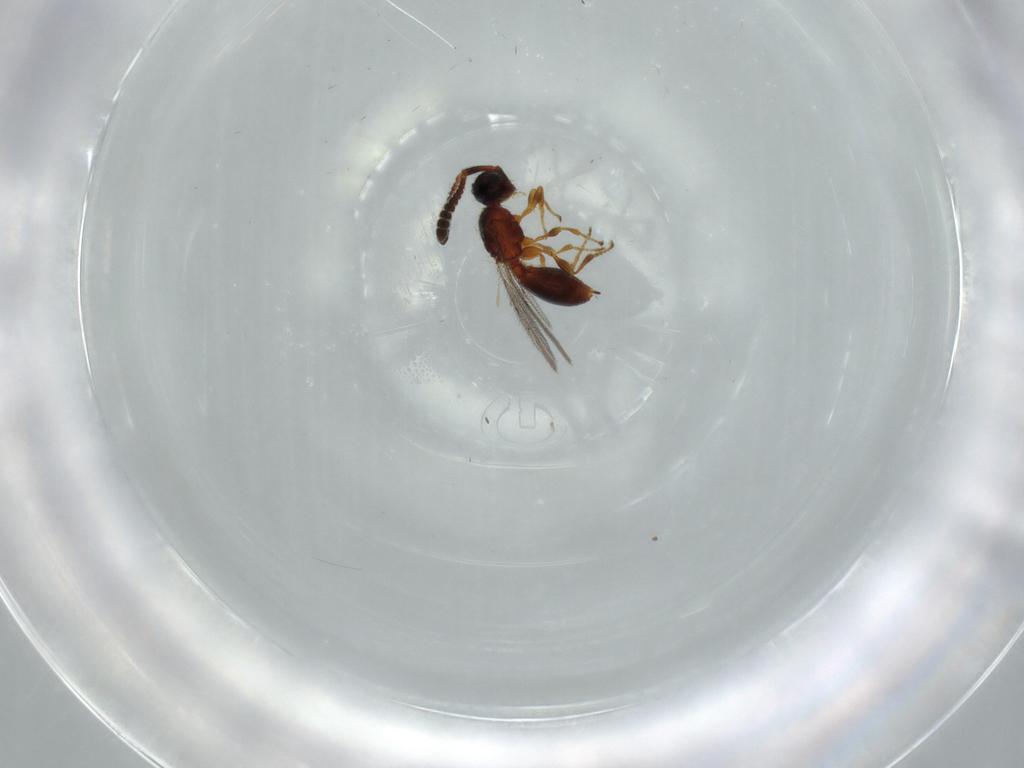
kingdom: Animalia
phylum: Arthropoda
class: Insecta
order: Hymenoptera
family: Diapriidae
